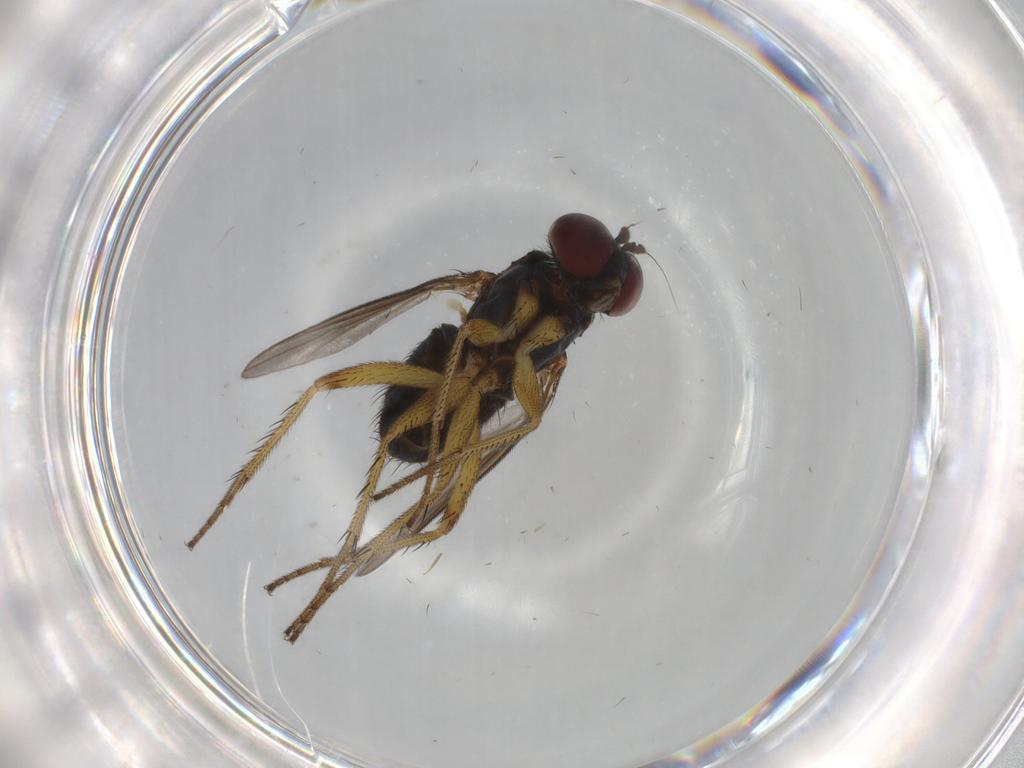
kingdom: Animalia
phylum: Arthropoda
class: Insecta
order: Diptera
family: Dolichopodidae
